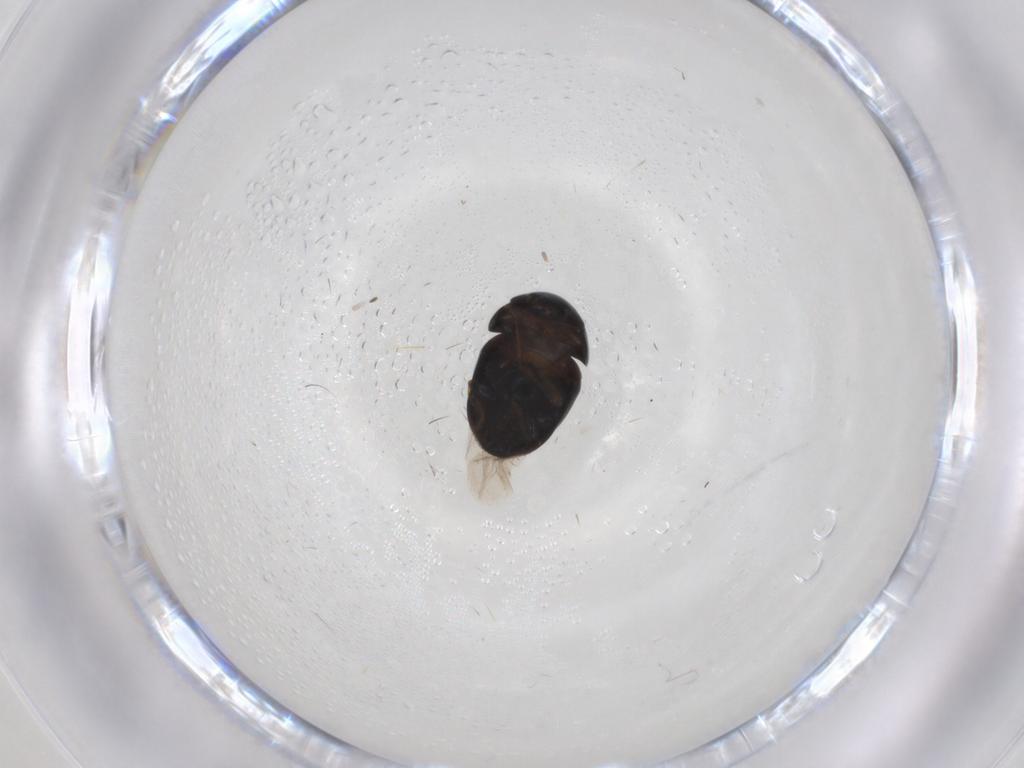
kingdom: Animalia
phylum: Arthropoda
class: Insecta
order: Coleoptera
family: Cybocephalidae
